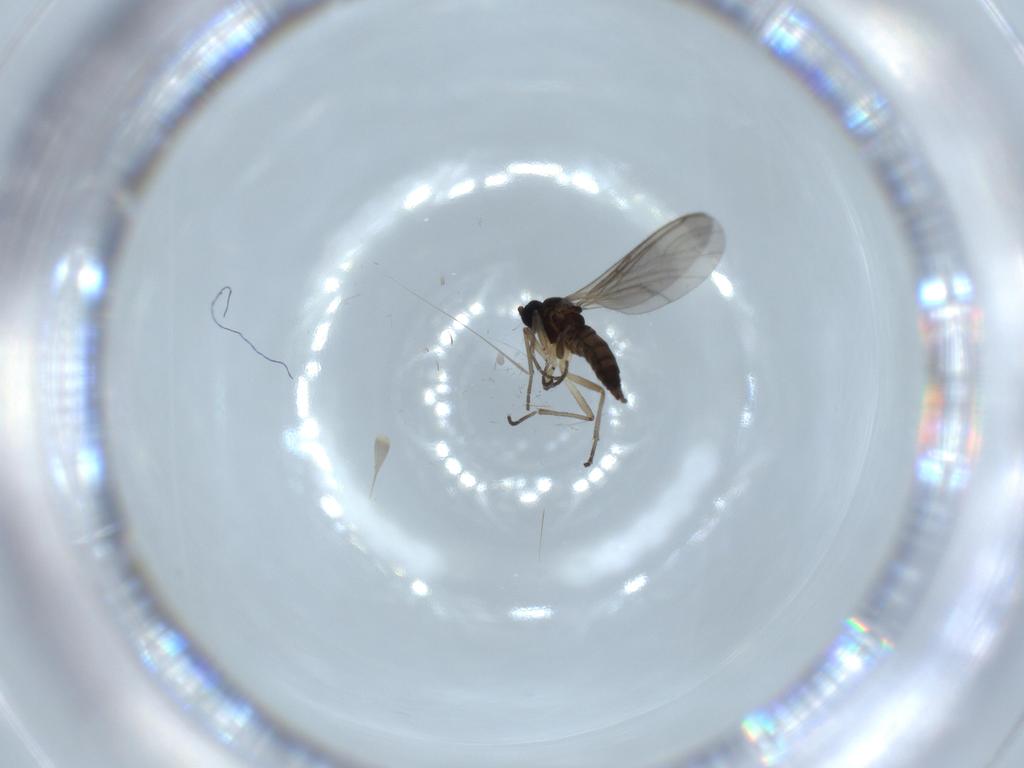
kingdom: Animalia
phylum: Arthropoda
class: Insecta
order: Diptera
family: Sciaridae
